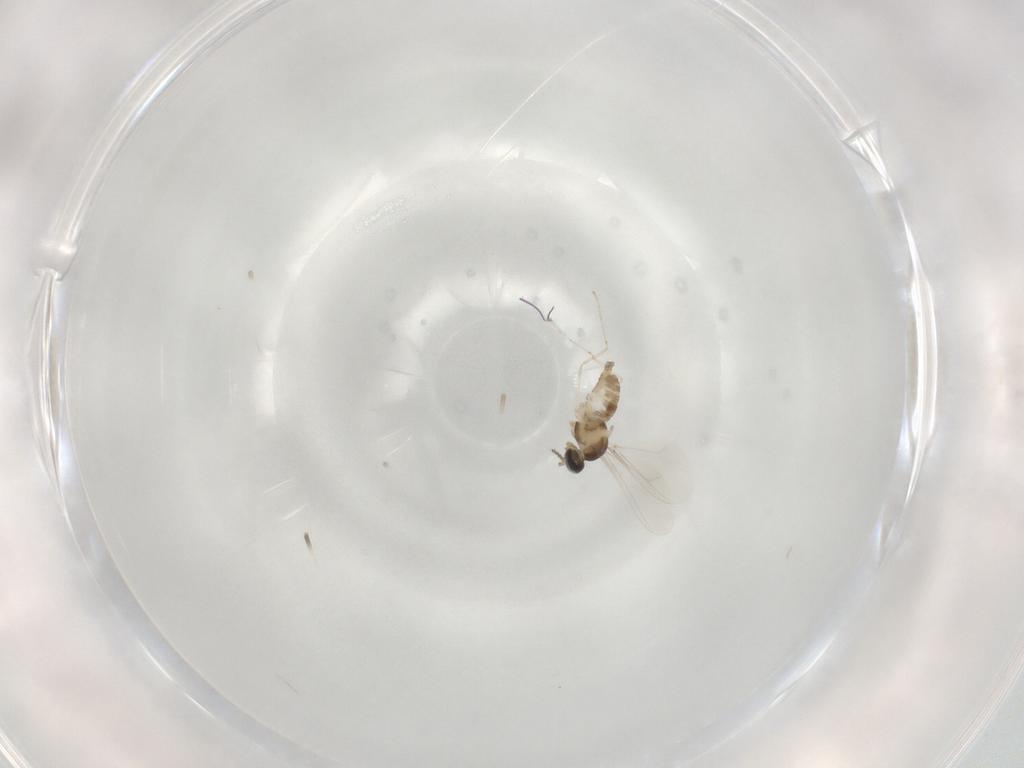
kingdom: Animalia
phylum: Arthropoda
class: Insecta
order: Diptera
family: Cecidomyiidae
